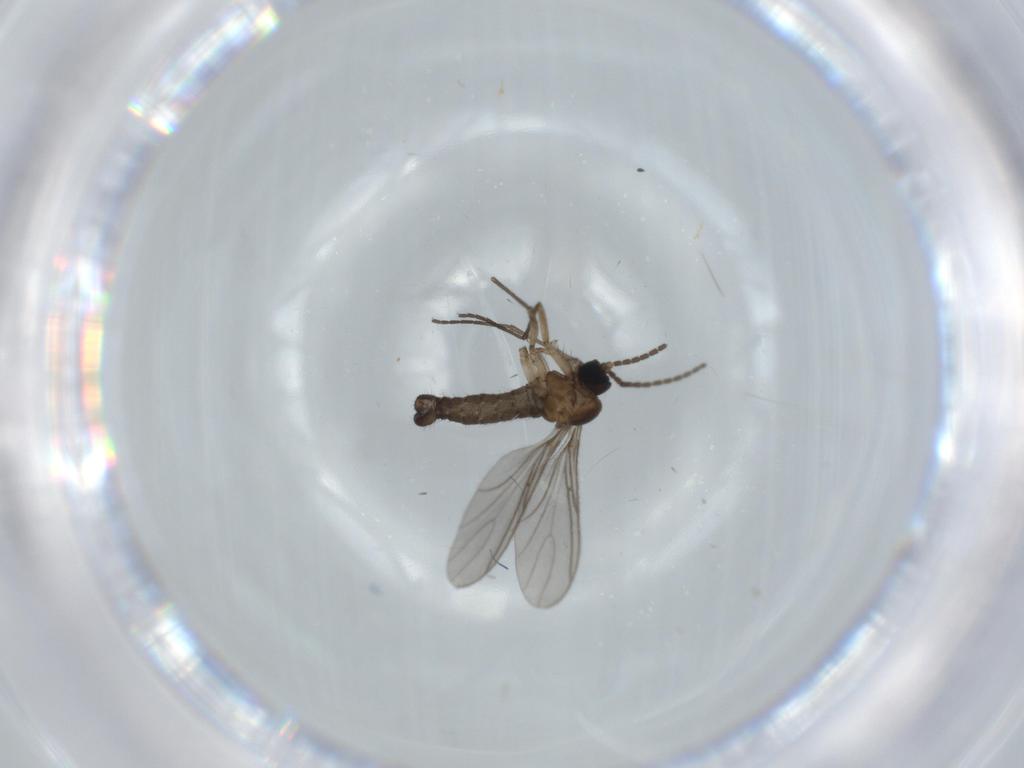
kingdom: Animalia
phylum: Arthropoda
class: Insecta
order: Diptera
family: Sciaridae
